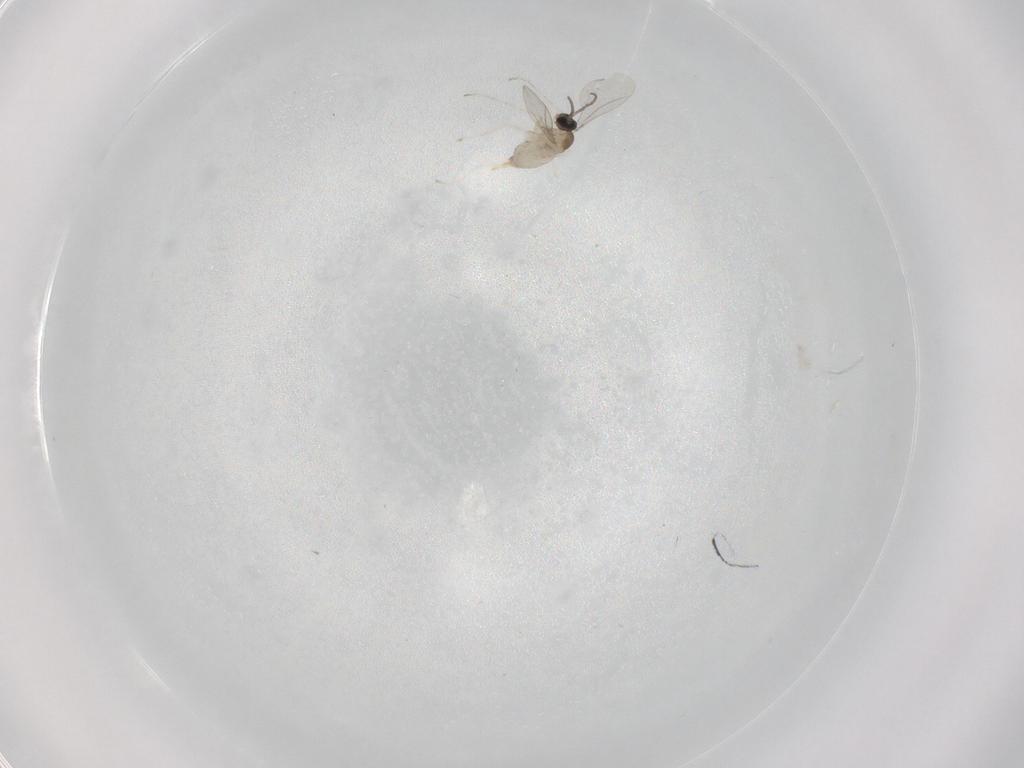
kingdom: Animalia
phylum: Arthropoda
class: Insecta
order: Diptera
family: Cecidomyiidae
